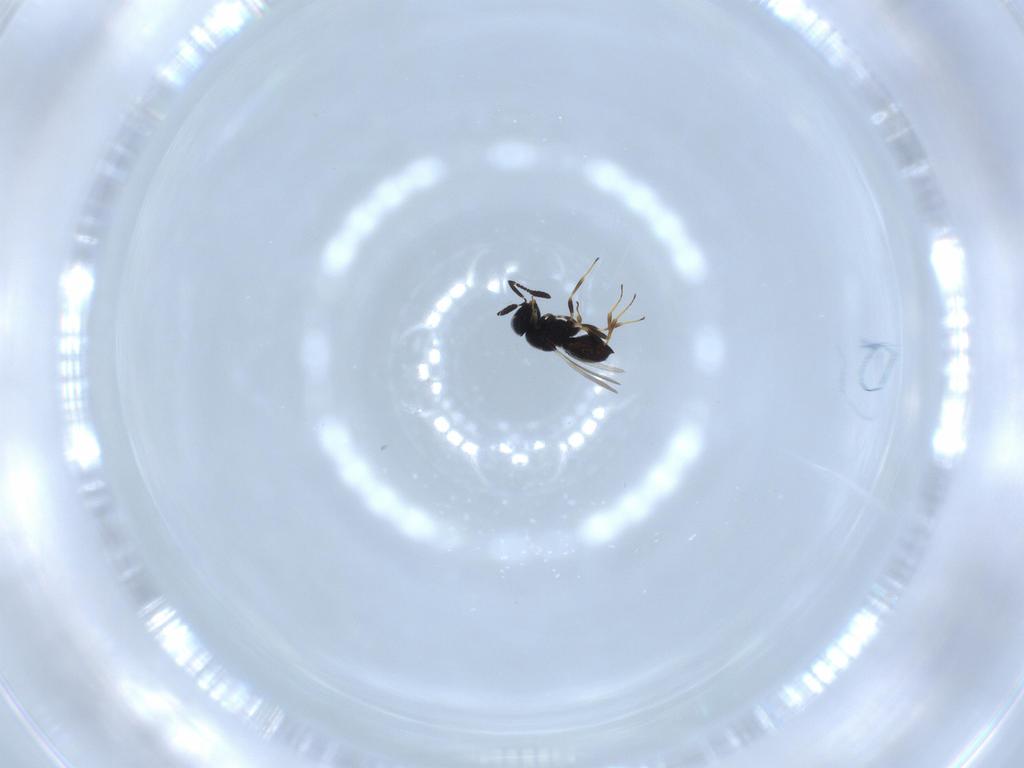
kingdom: Animalia
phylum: Arthropoda
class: Insecta
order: Hymenoptera
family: Scelionidae
